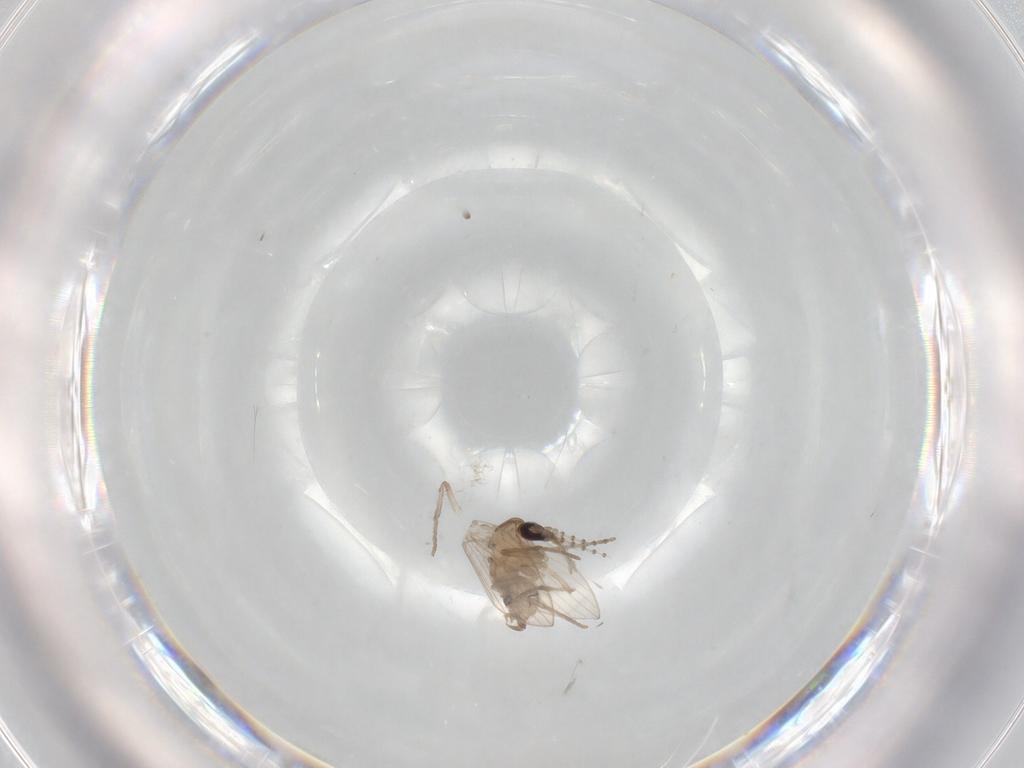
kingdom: Animalia
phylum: Arthropoda
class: Insecta
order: Diptera
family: Psychodidae
